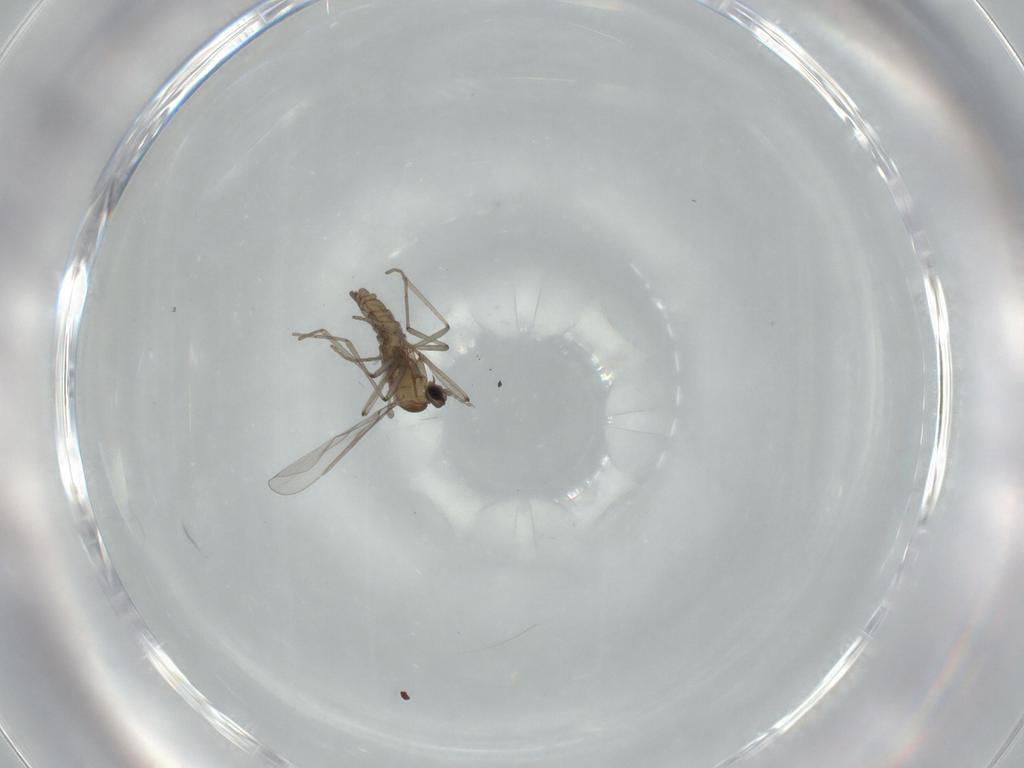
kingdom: Animalia
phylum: Arthropoda
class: Insecta
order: Diptera
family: Cecidomyiidae
